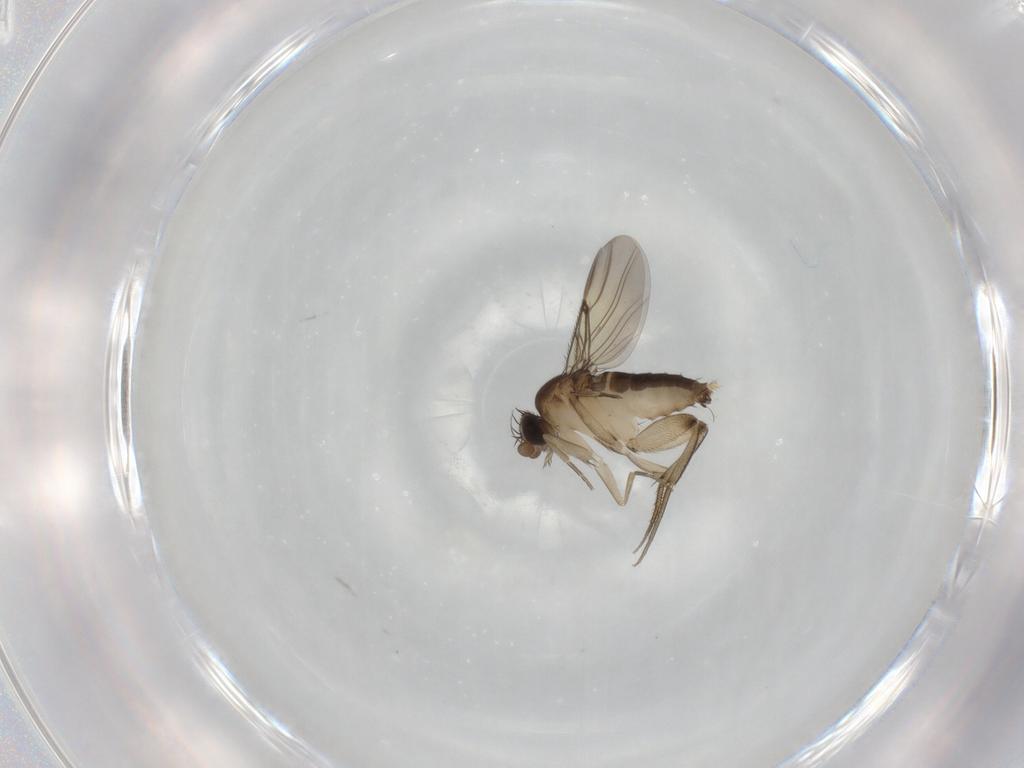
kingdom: Animalia
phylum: Arthropoda
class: Insecta
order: Diptera
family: Phoridae
